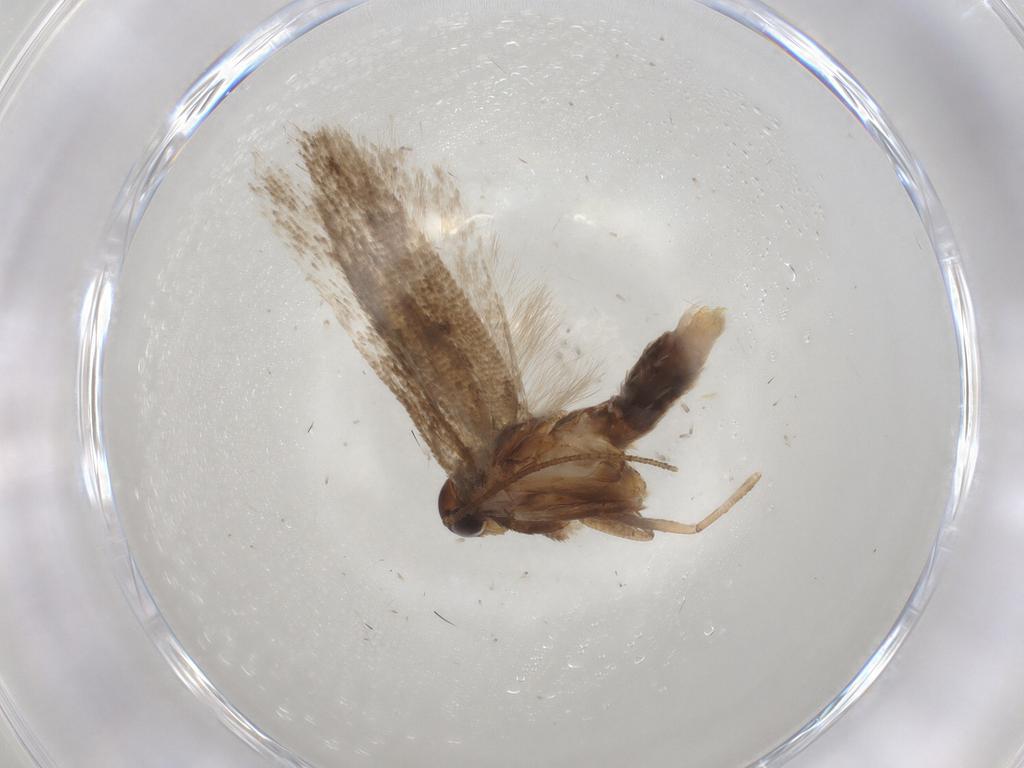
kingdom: Animalia
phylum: Arthropoda
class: Insecta
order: Lepidoptera
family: Gelechiidae
